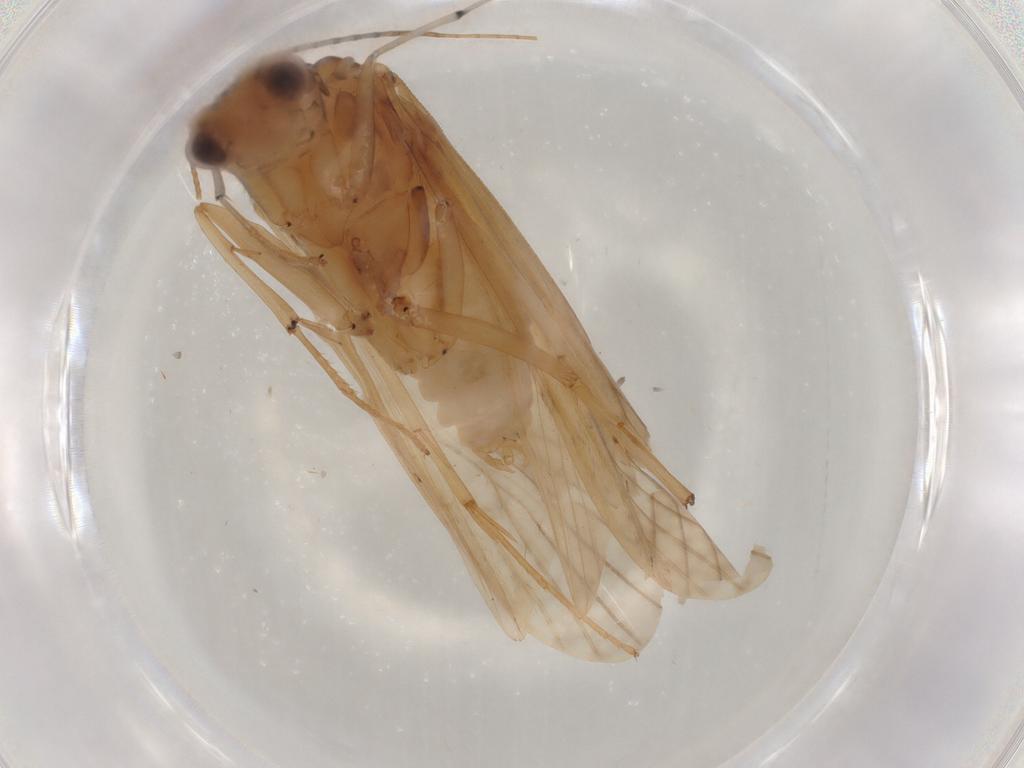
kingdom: Animalia
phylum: Arthropoda
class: Insecta
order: Trichoptera
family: Hydropsychidae
